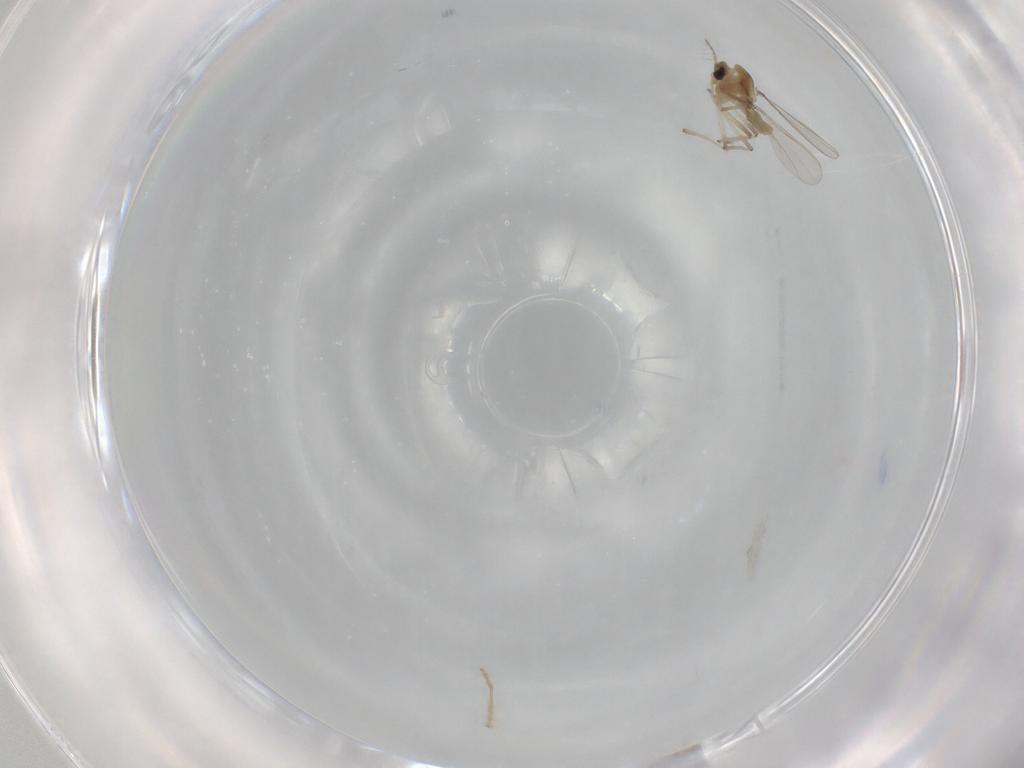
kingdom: Animalia
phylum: Arthropoda
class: Insecta
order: Diptera
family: Chironomidae
